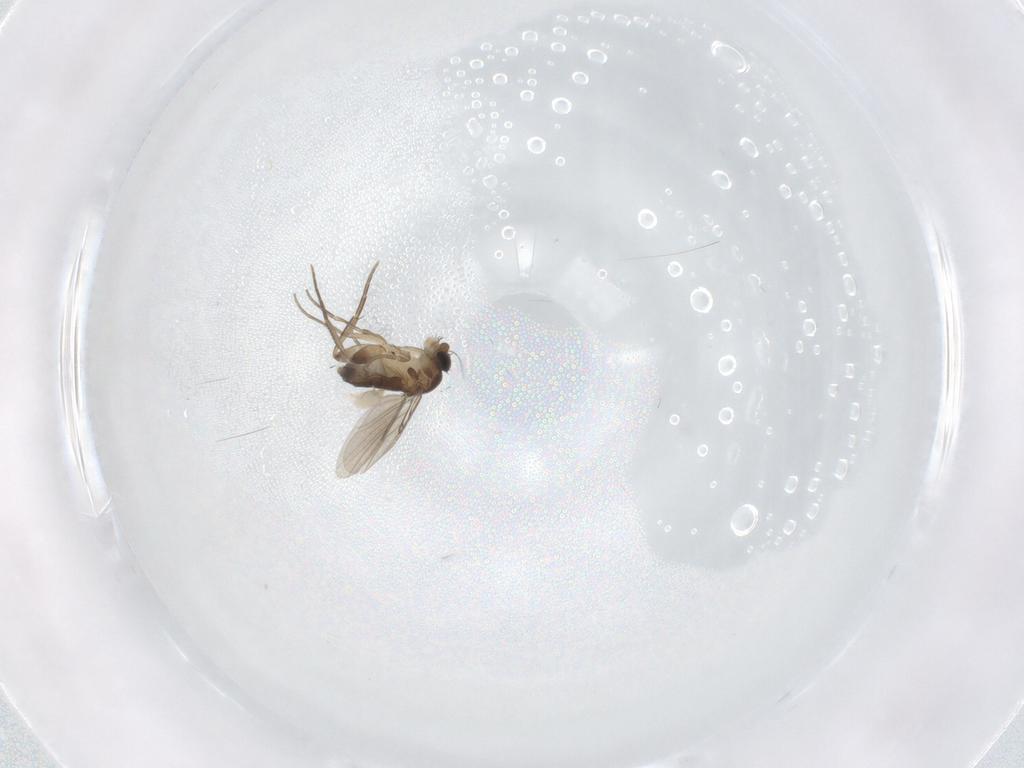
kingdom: Animalia
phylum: Arthropoda
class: Insecta
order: Diptera
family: Phoridae
